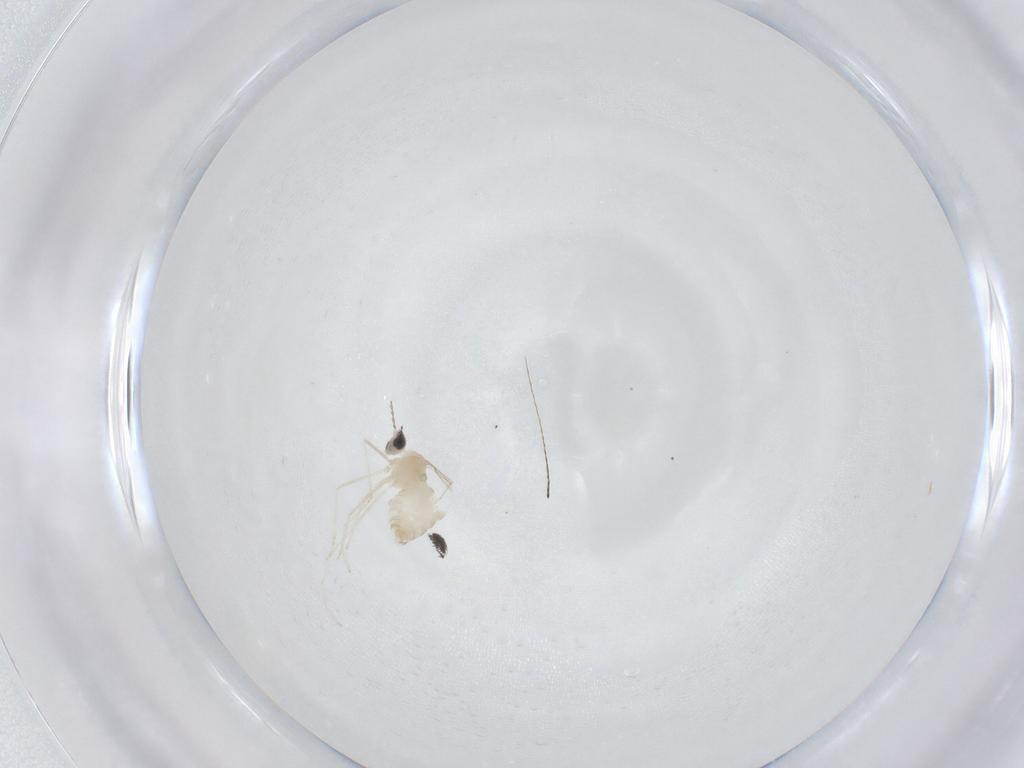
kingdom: Animalia
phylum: Arthropoda
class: Insecta
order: Diptera
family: Cecidomyiidae
